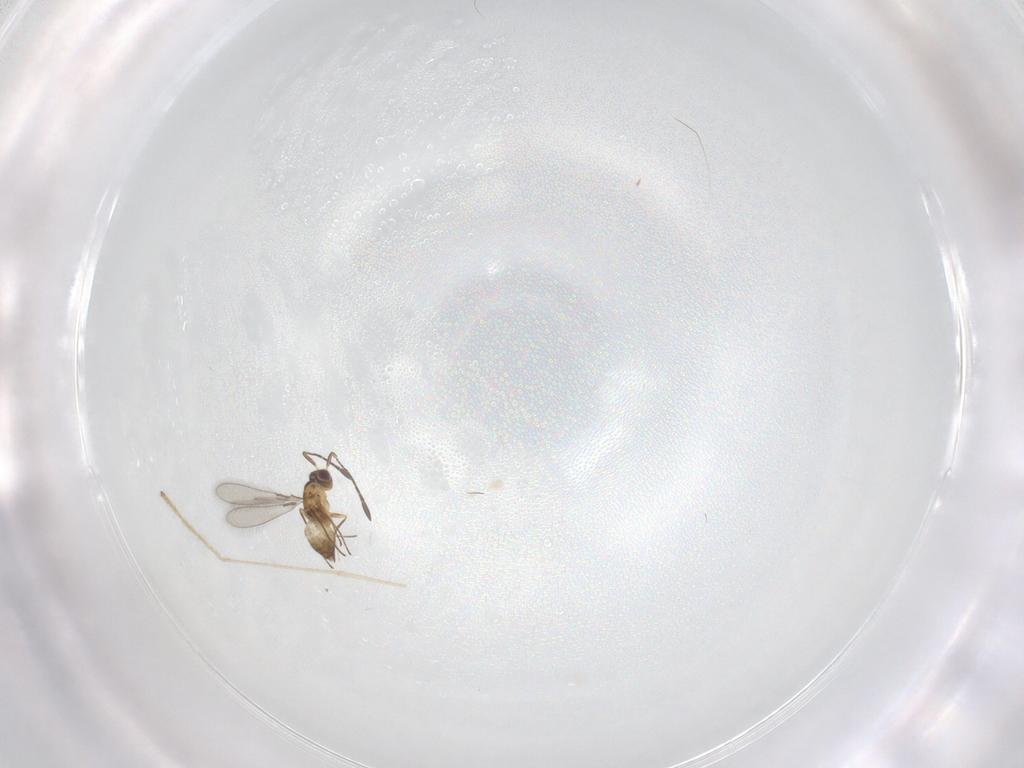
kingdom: Animalia
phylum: Arthropoda
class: Insecta
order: Hymenoptera
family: Mymaridae
